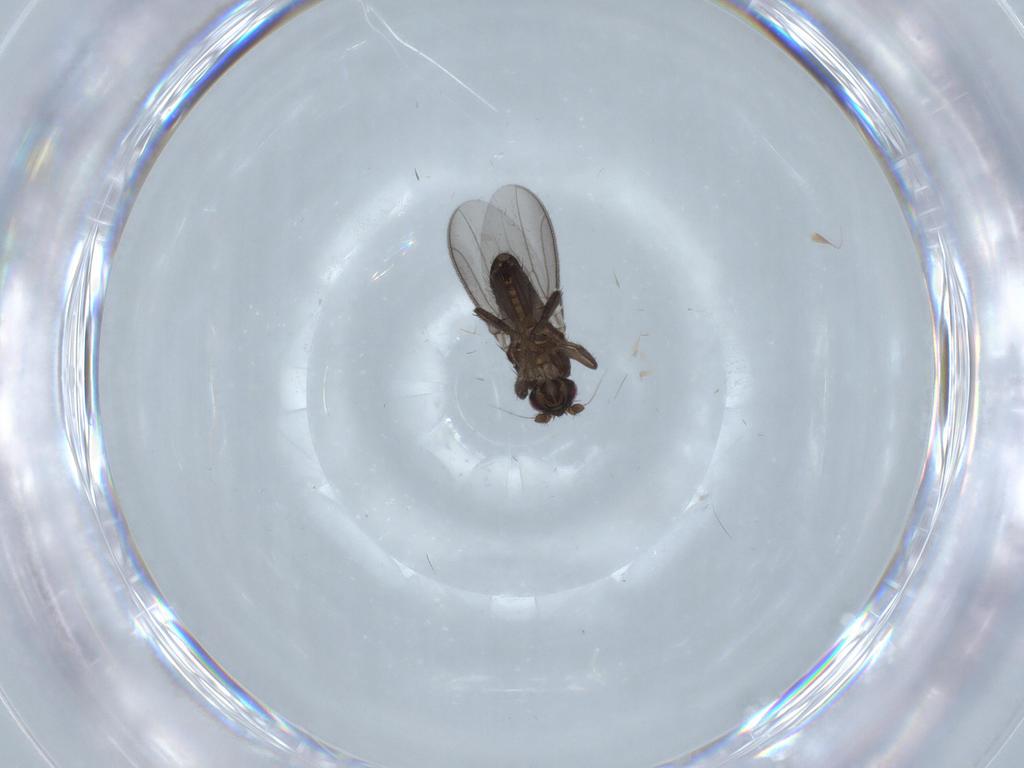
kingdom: Animalia
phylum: Arthropoda
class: Insecta
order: Diptera
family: Sphaeroceridae
